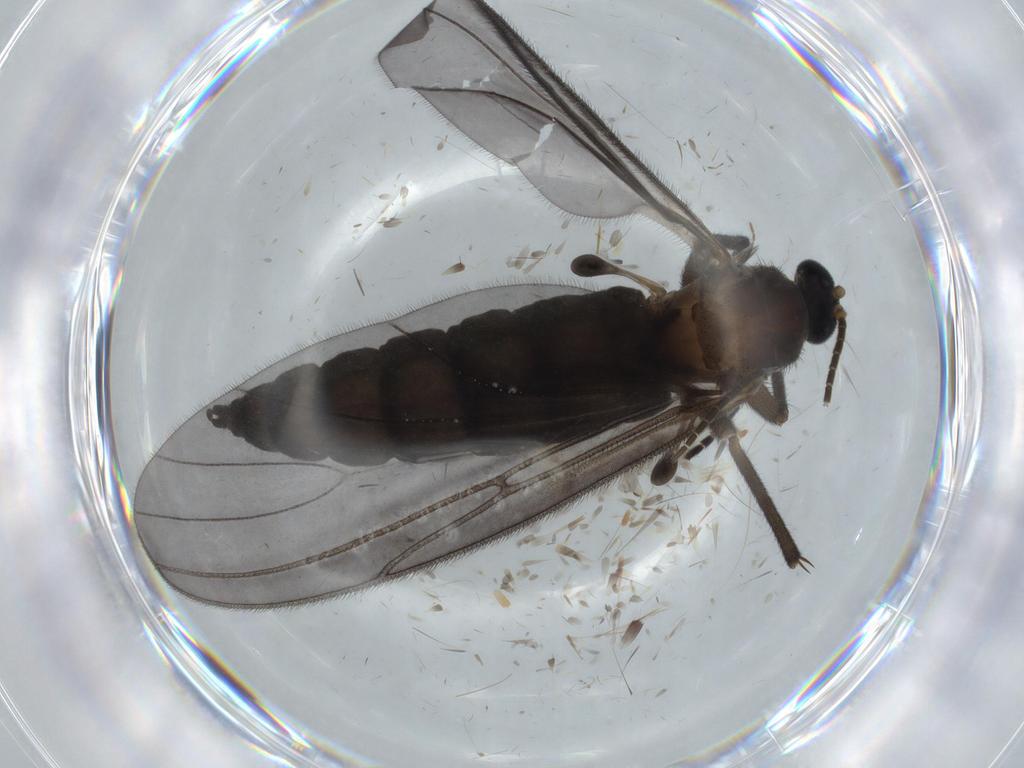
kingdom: Animalia
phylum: Arthropoda
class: Insecta
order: Diptera
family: Ceratopogonidae
